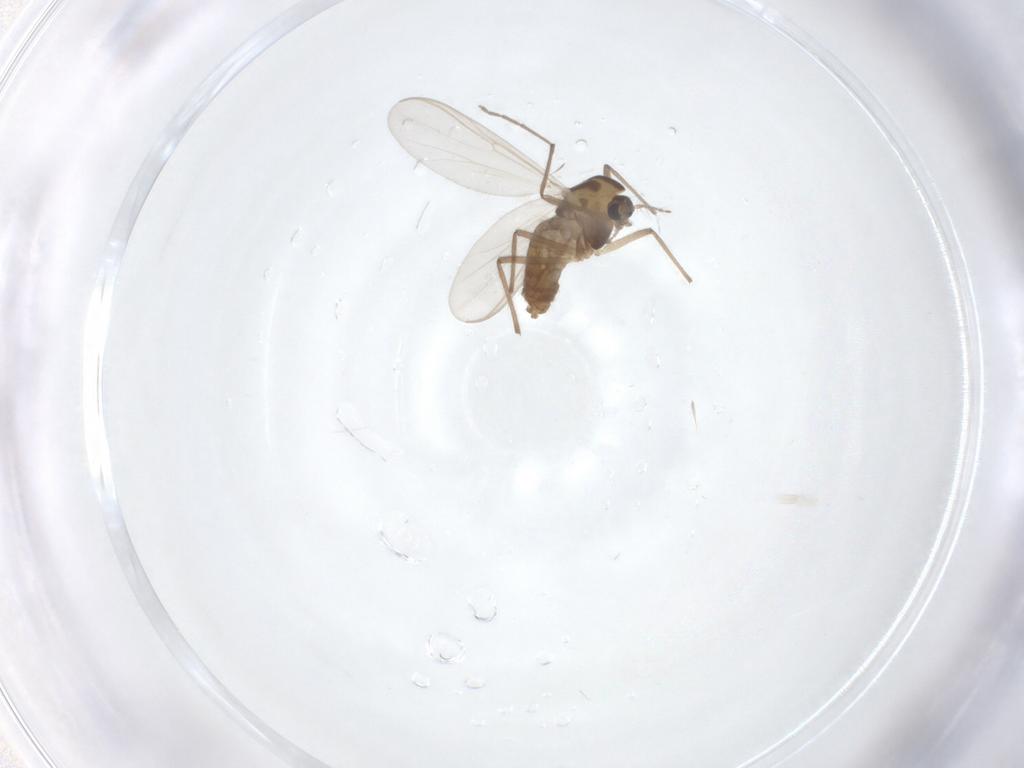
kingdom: Animalia
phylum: Arthropoda
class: Insecta
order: Diptera
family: Chironomidae
